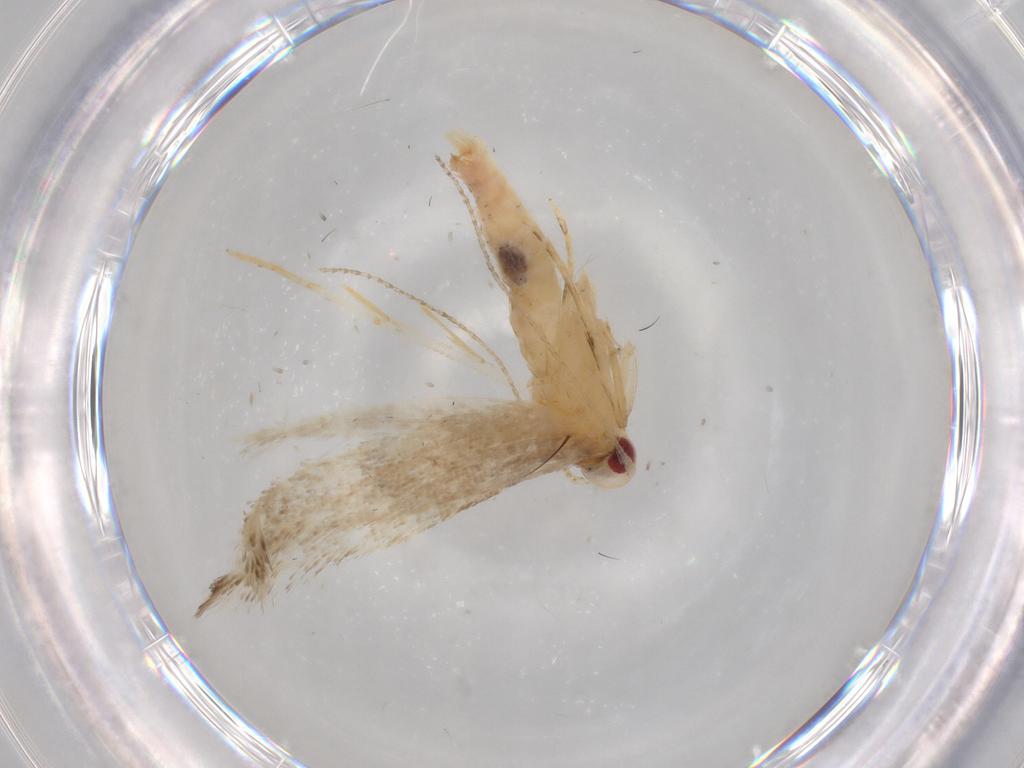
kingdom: Animalia
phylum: Arthropoda
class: Insecta
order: Lepidoptera
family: Cosmopterigidae
